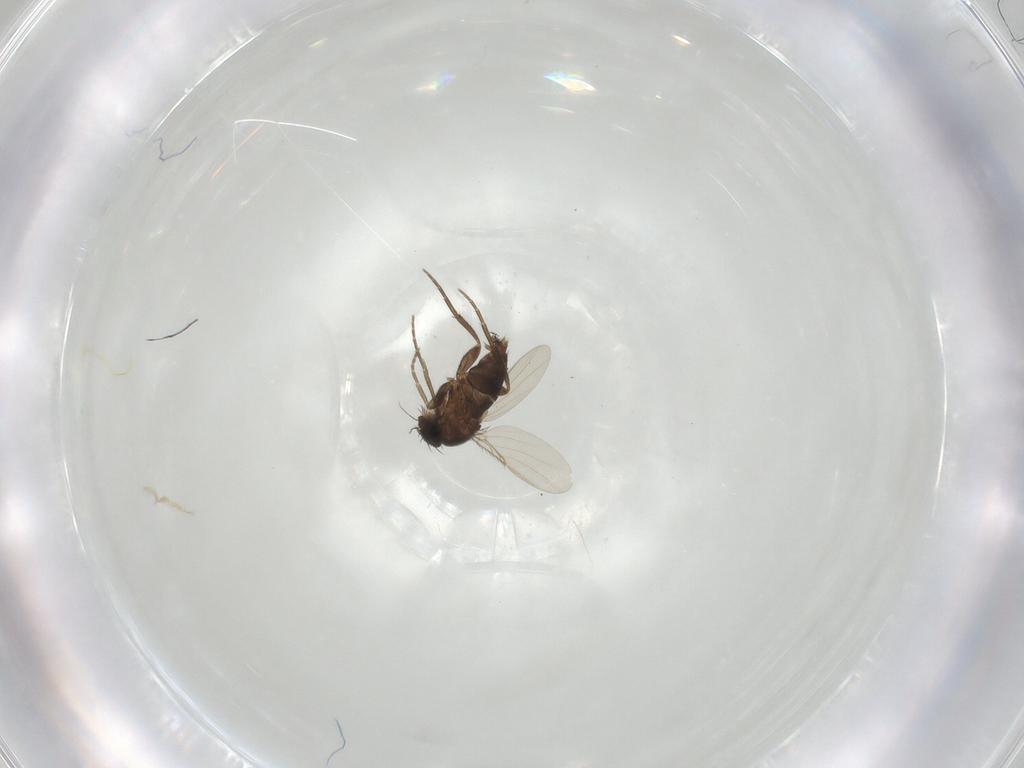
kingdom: Animalia
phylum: Arthropoda
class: Insecta
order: Diptera
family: Phoridae
